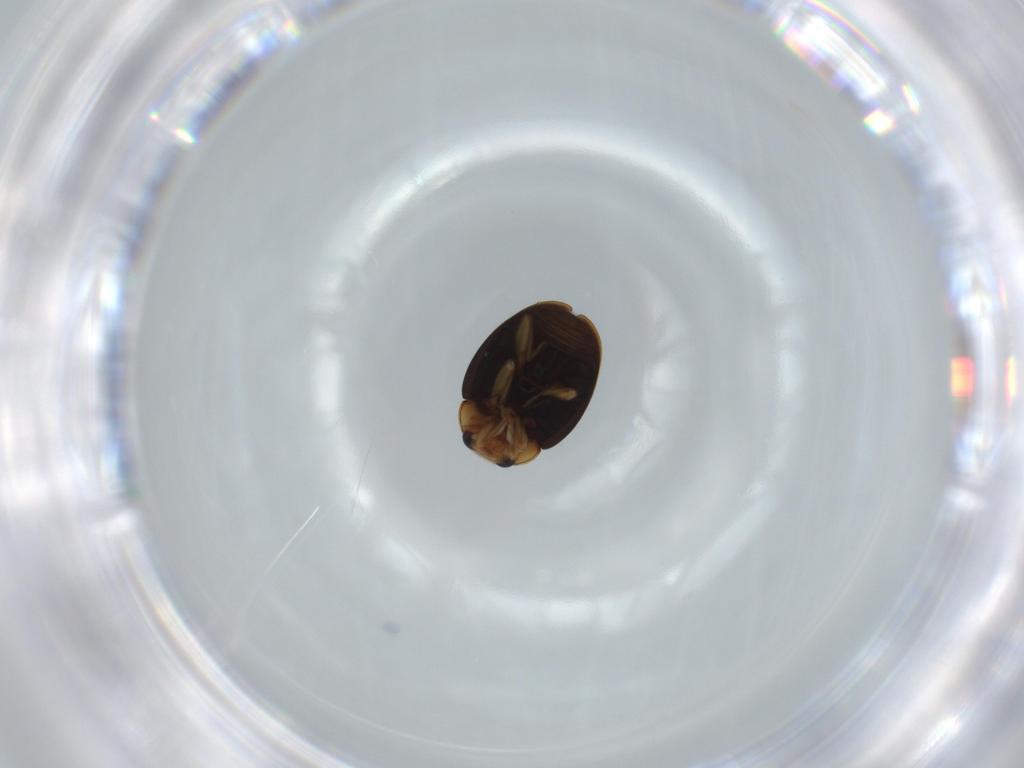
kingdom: Animalia
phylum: Arthropoda
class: Insecta
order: Coleoptera
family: Coccinellidae
